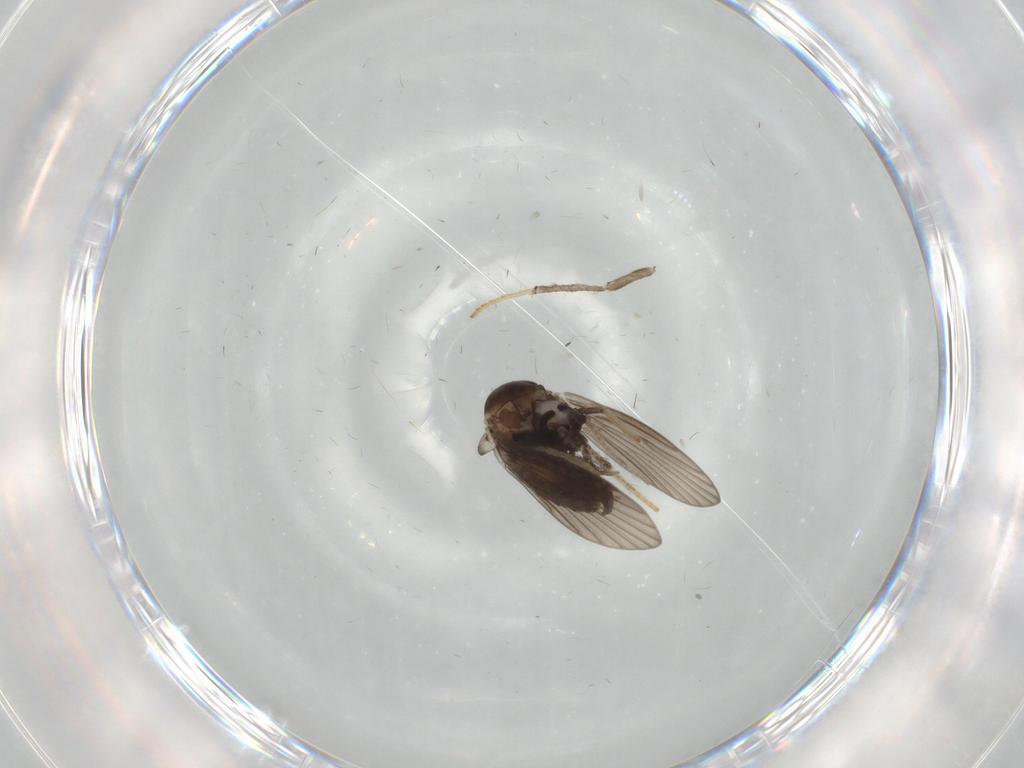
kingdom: Animalia
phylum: Arthropoda
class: Insecta
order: Diptera
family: Psychodidae
